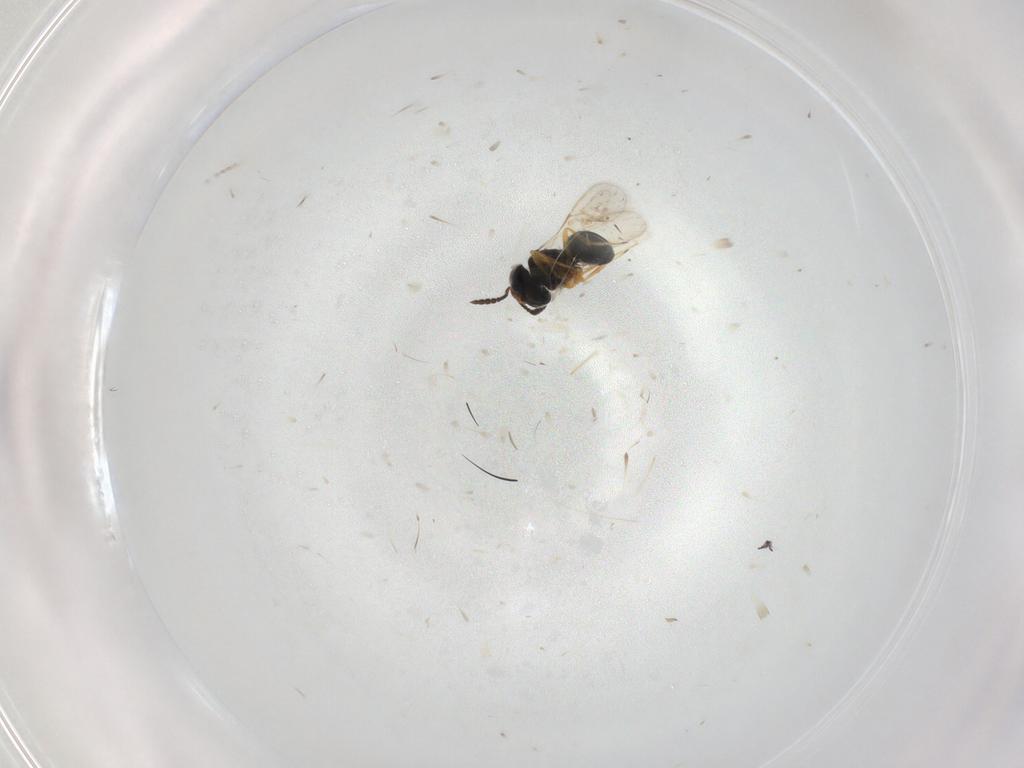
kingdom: Animalia
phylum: Arthropoda
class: Insecta
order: Hymenoptera
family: Scelionidae
